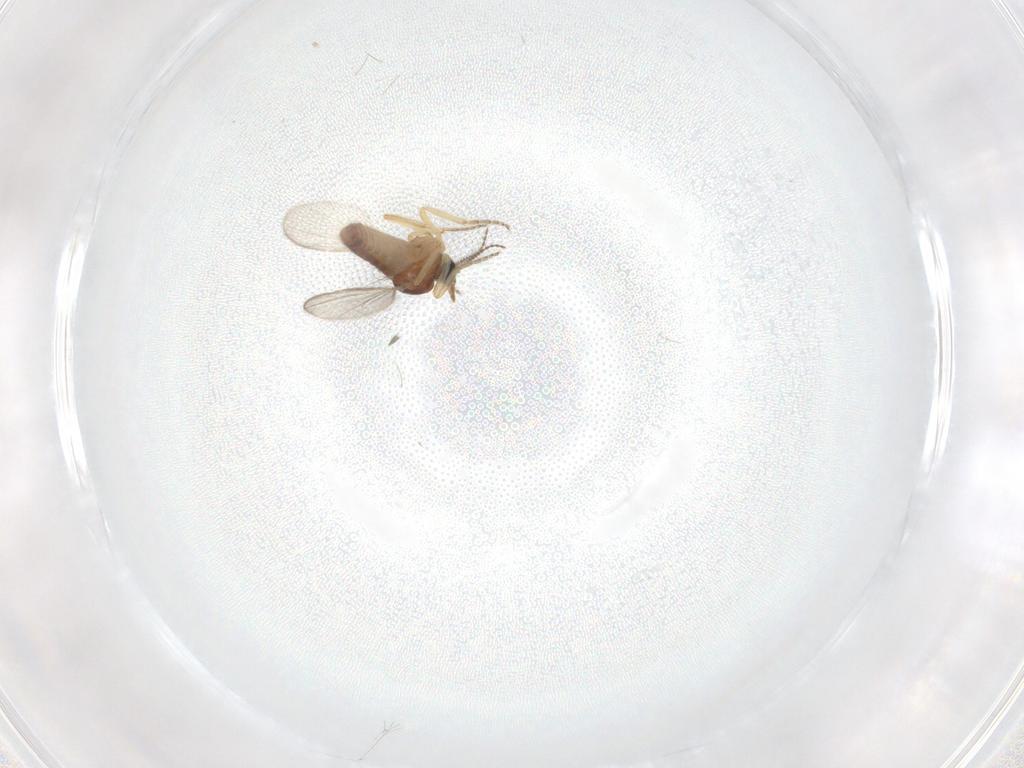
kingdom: Animalia
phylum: Arthropoda
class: Insecta
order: Diptera
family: Ceratopogonidae
